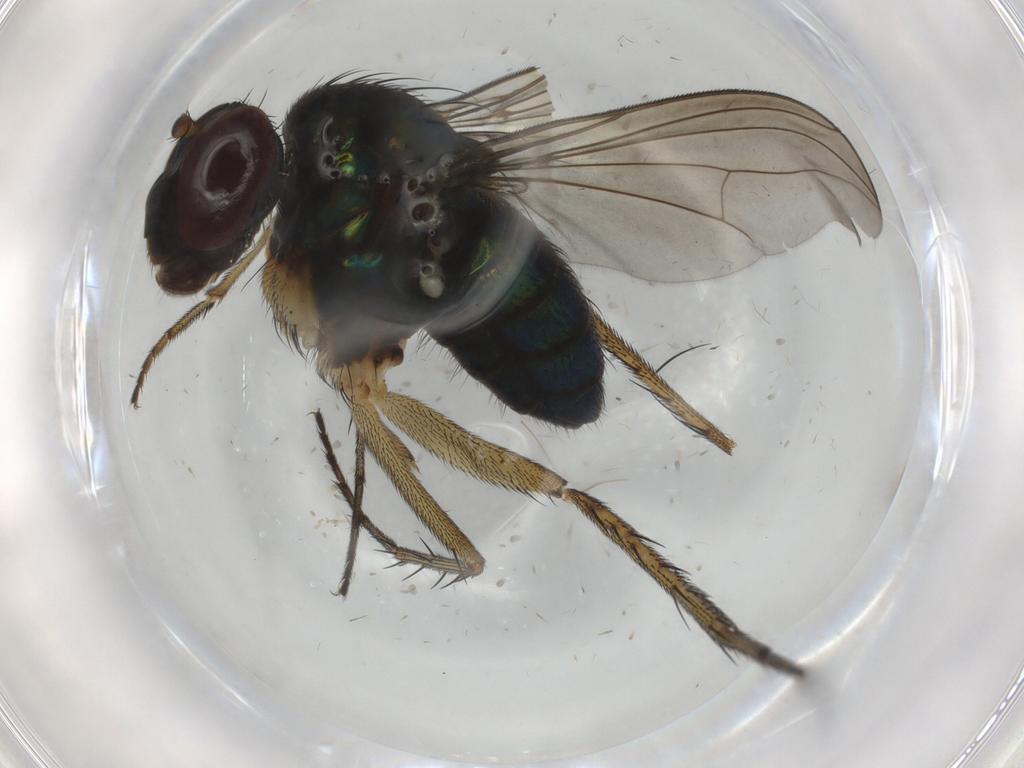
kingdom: Animalia
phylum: Arthropoda
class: Insecta
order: Diptera
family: Dolichopodidae
